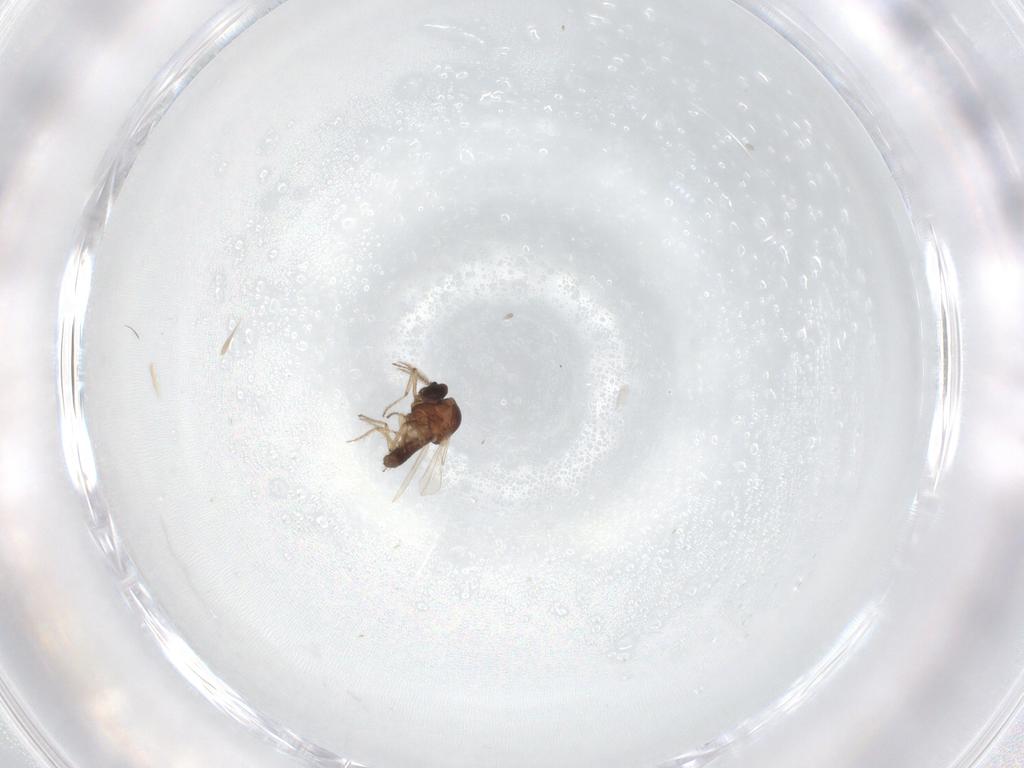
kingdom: Animalia
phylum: Arthropoda
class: Insecta
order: Diptera
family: Ceratopogonidae
